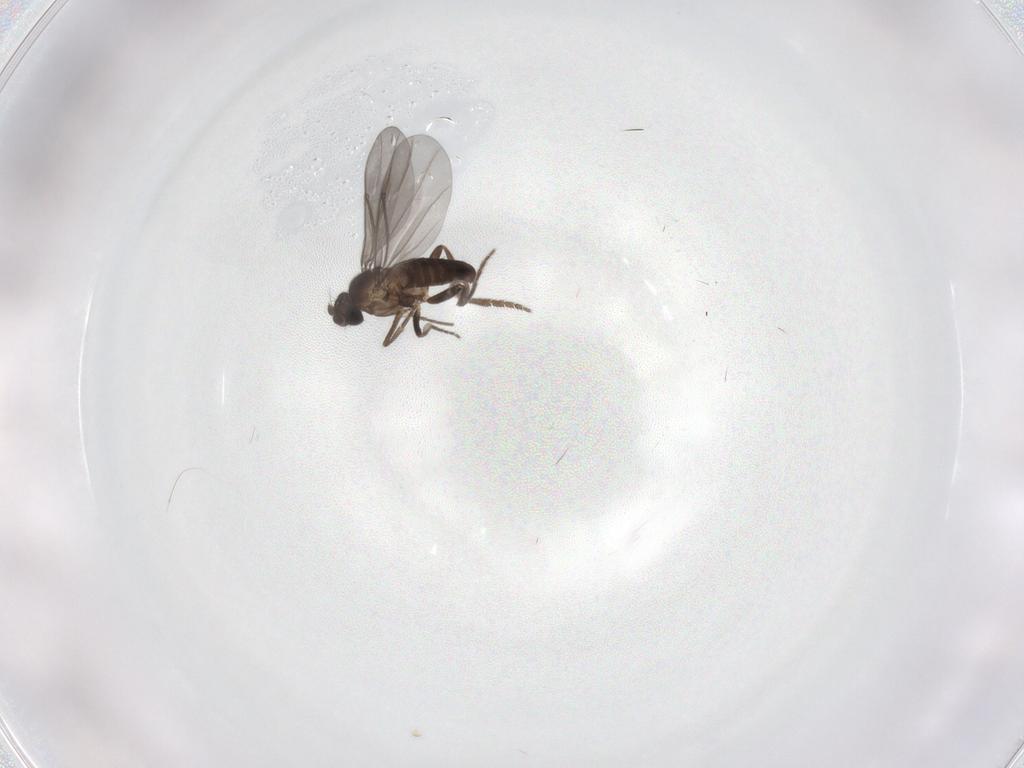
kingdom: Animalia
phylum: Arthropoda
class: Insecta
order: Diptera
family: Phoridae
